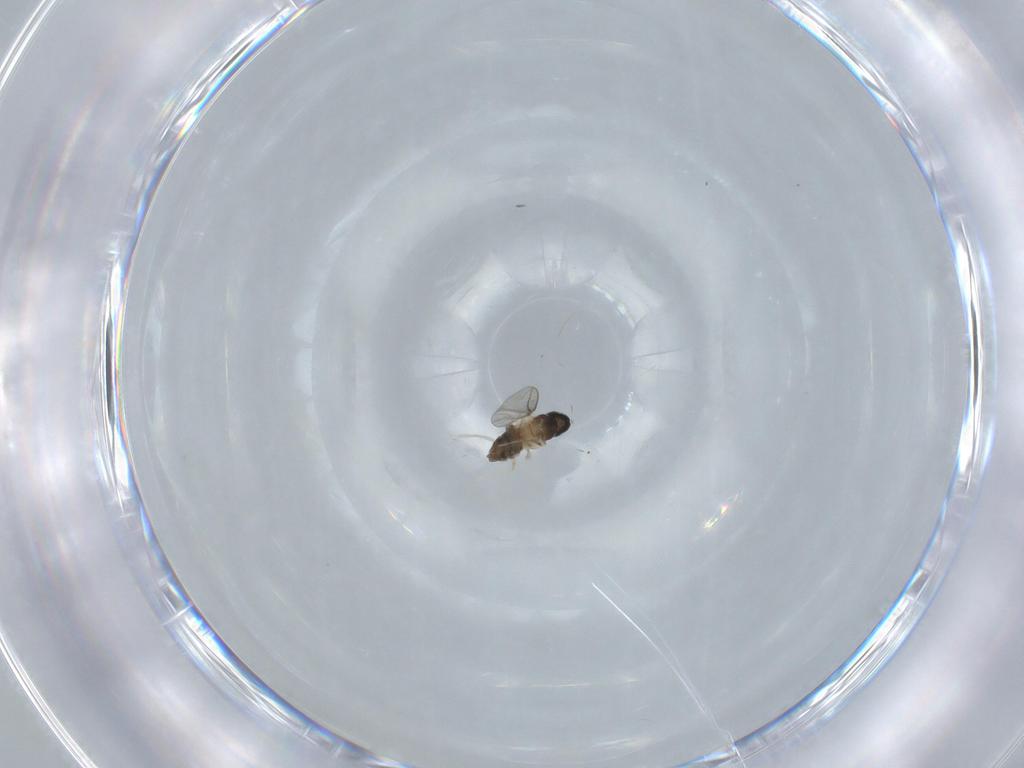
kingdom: Animalia
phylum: Arthropoda
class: Insecta
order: Diptera
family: Cecidomyiidae
